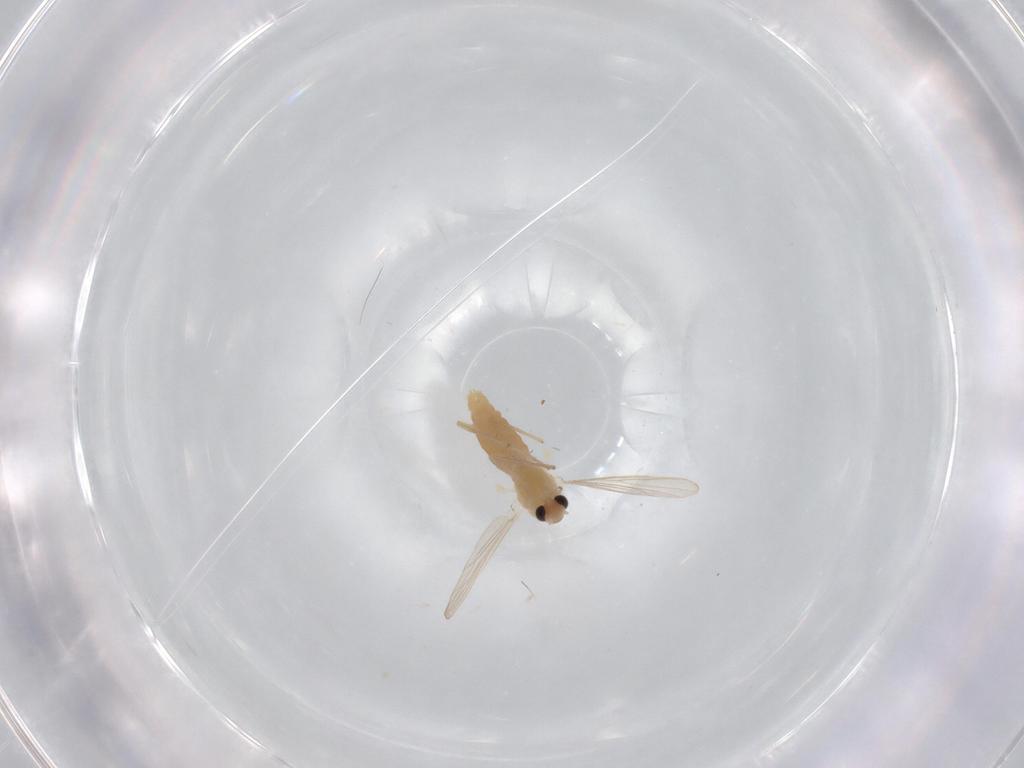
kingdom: Animalia
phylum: Arthropoda
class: Insecta
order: Diptera
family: Chironomidae
